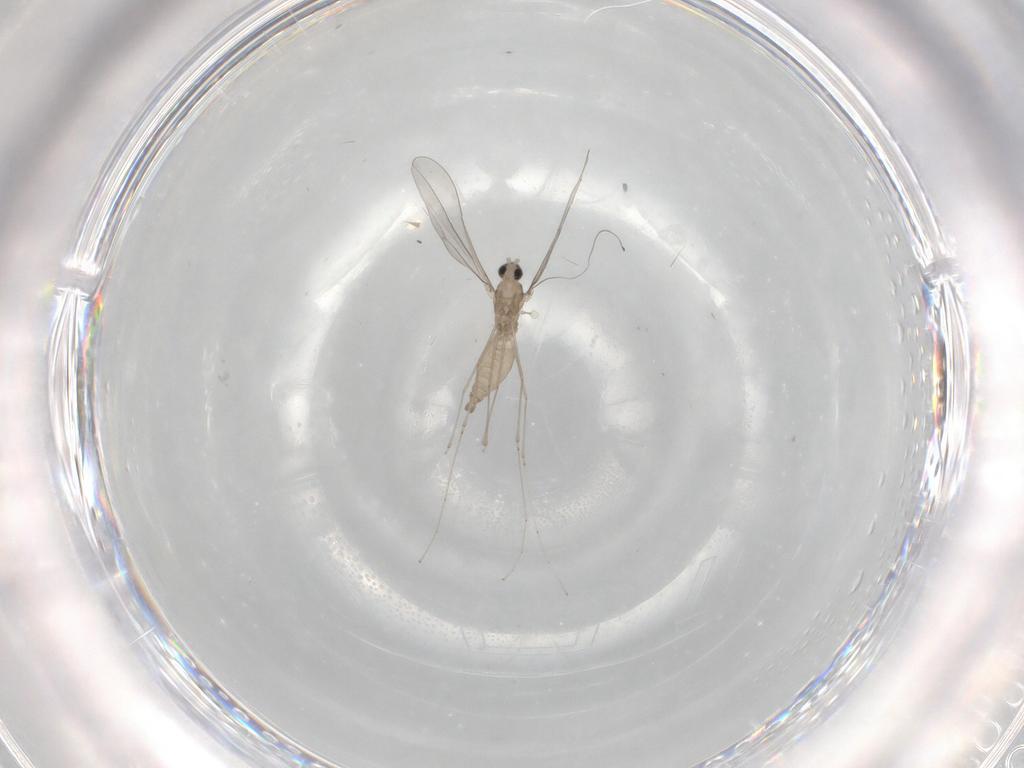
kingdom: Animalia
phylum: Arthropoda
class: Insecta
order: Diptera
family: Cecidomyiidae
